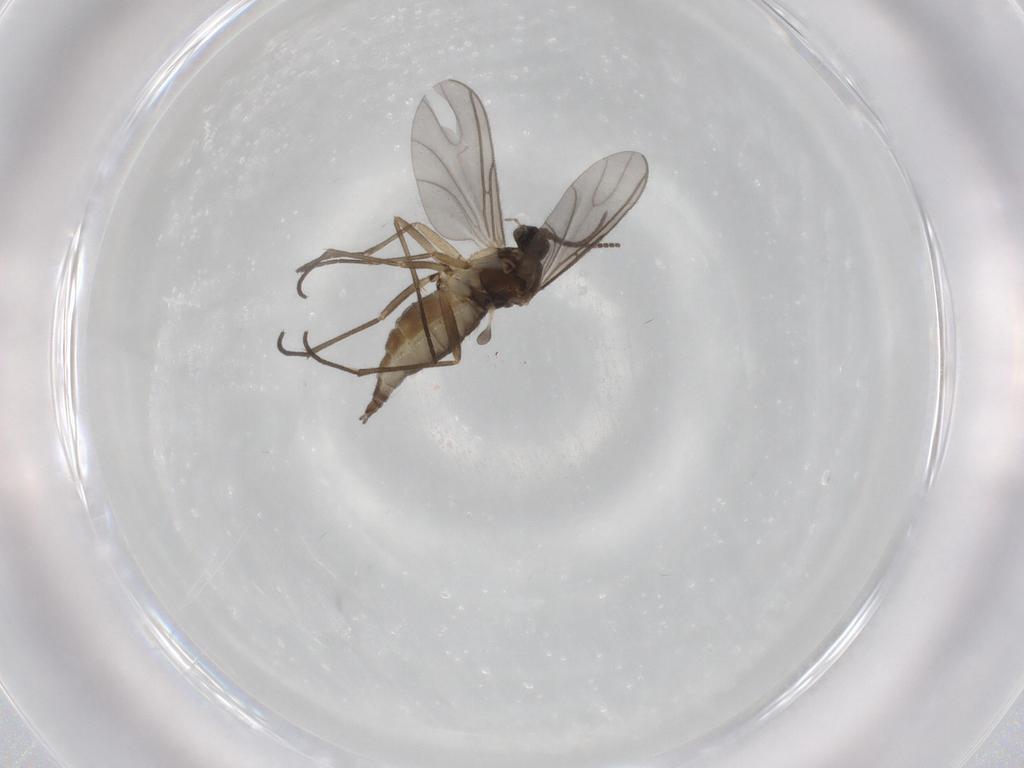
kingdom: Animalia
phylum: Arthropoda
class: Insecta
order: Diptera
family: Sciaridae
